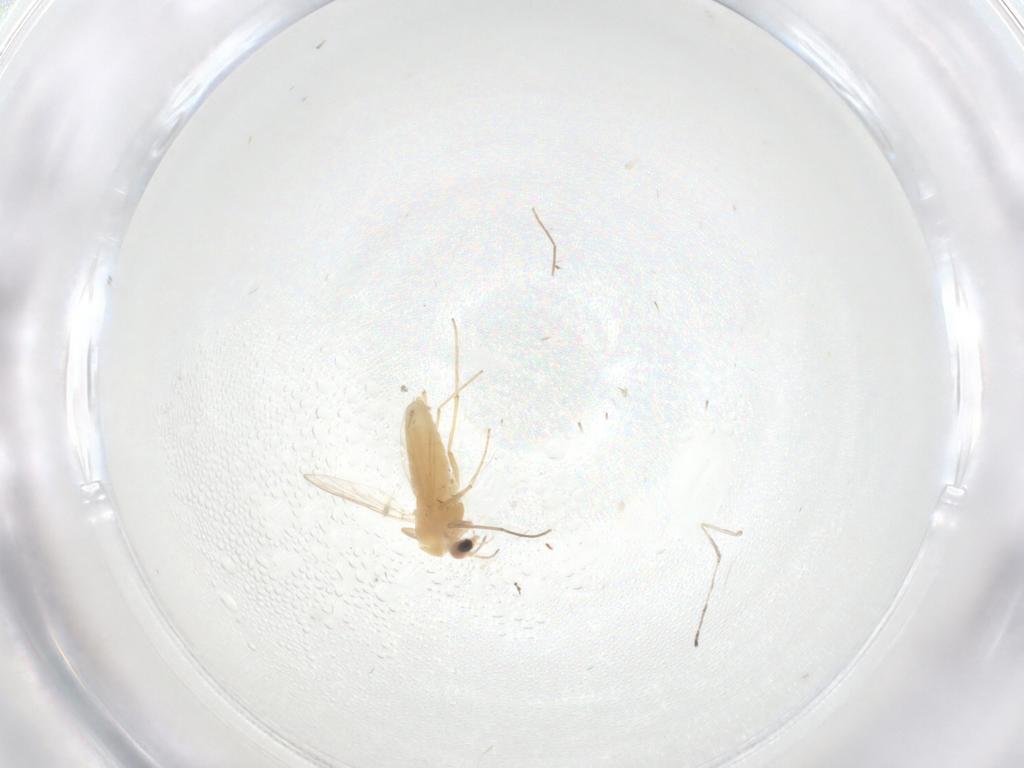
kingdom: Animalia
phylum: Arthropoda
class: Insecta
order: Diptera
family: Chironomidae
